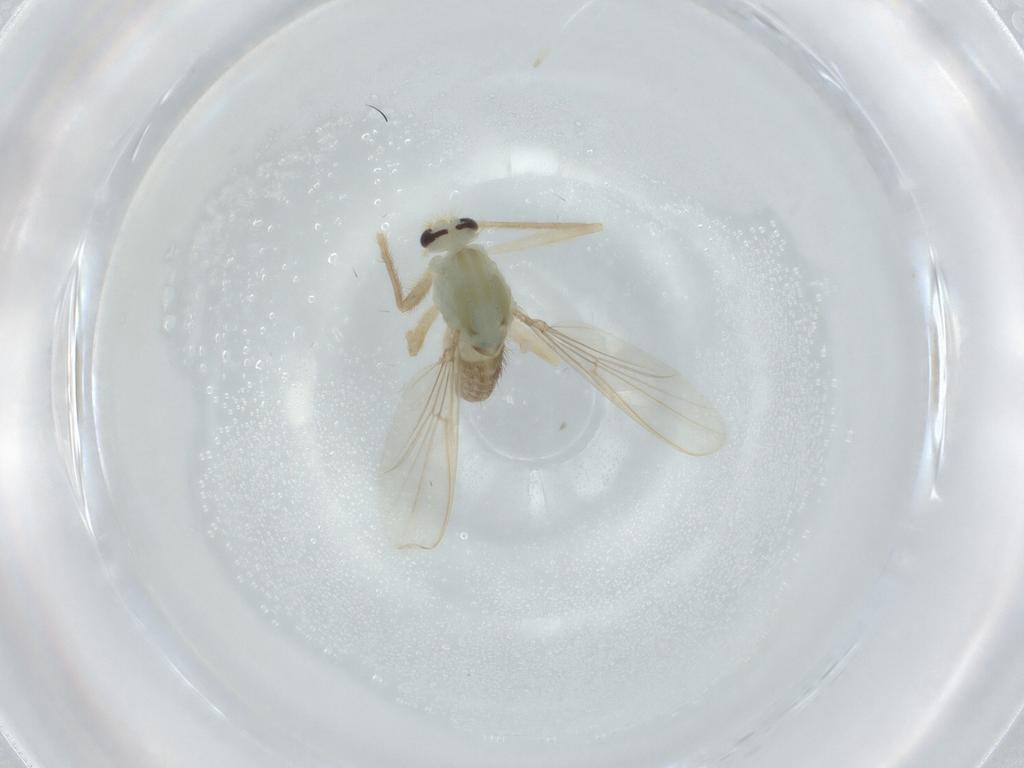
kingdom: Animalia
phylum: Arthropoda
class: Insecta
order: Diptera
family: Chironomidae
